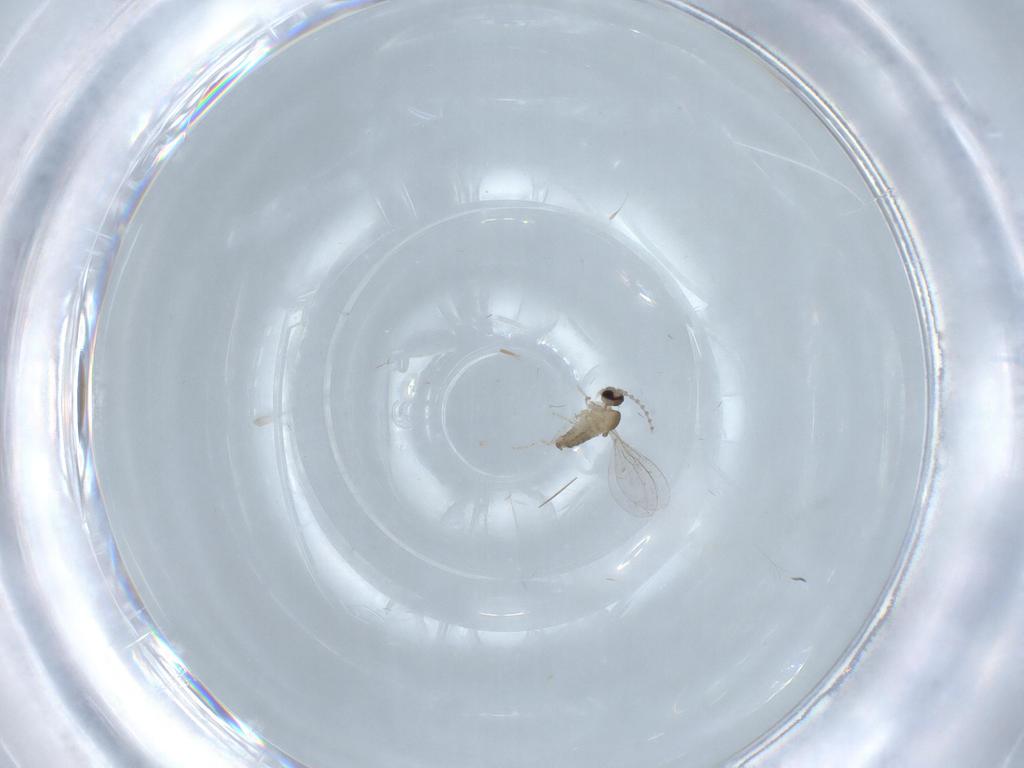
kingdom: Animalia
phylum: Arthropoda
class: Insecta
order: Diptera
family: Cecidomyiidae
